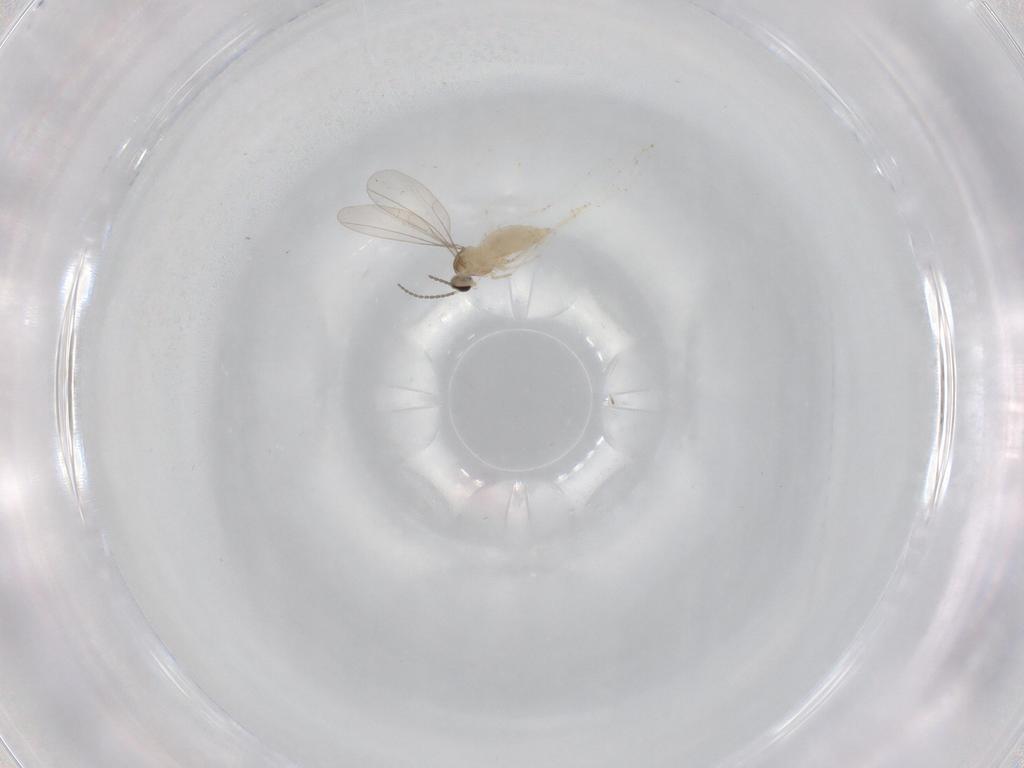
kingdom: Animalia
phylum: Arthropoda
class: Insecta
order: Diptera
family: Cecidomyiidae
